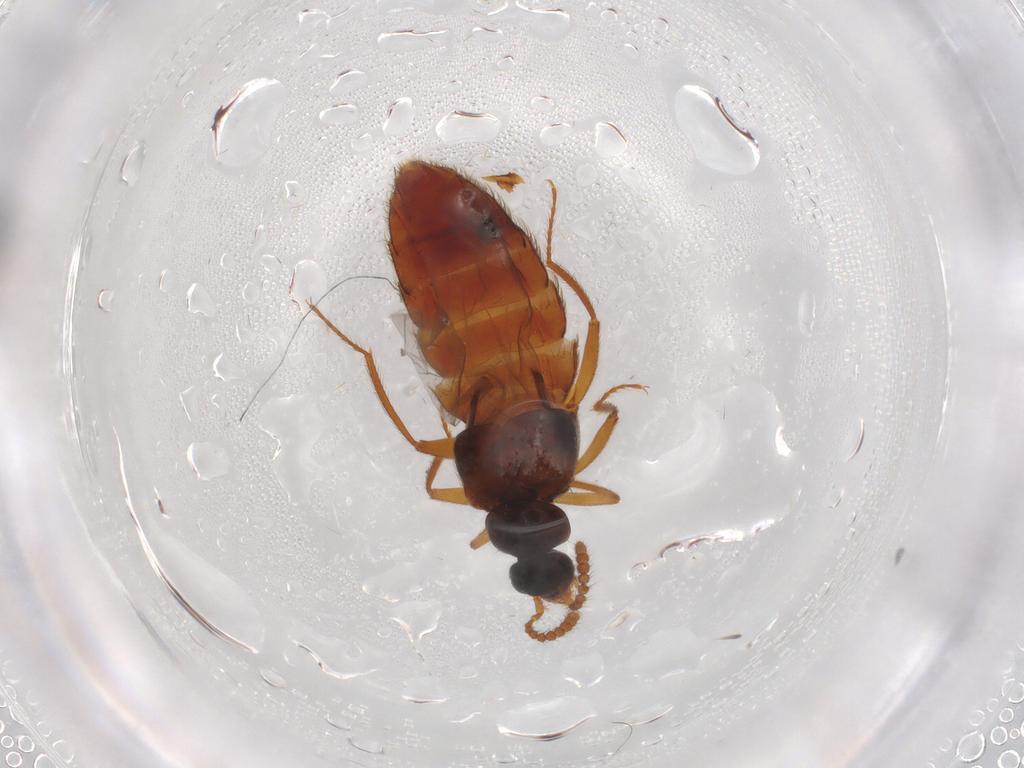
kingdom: Animalia
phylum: Arthropoda
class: Insecta
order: Coleoptera
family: Staphylinidae
